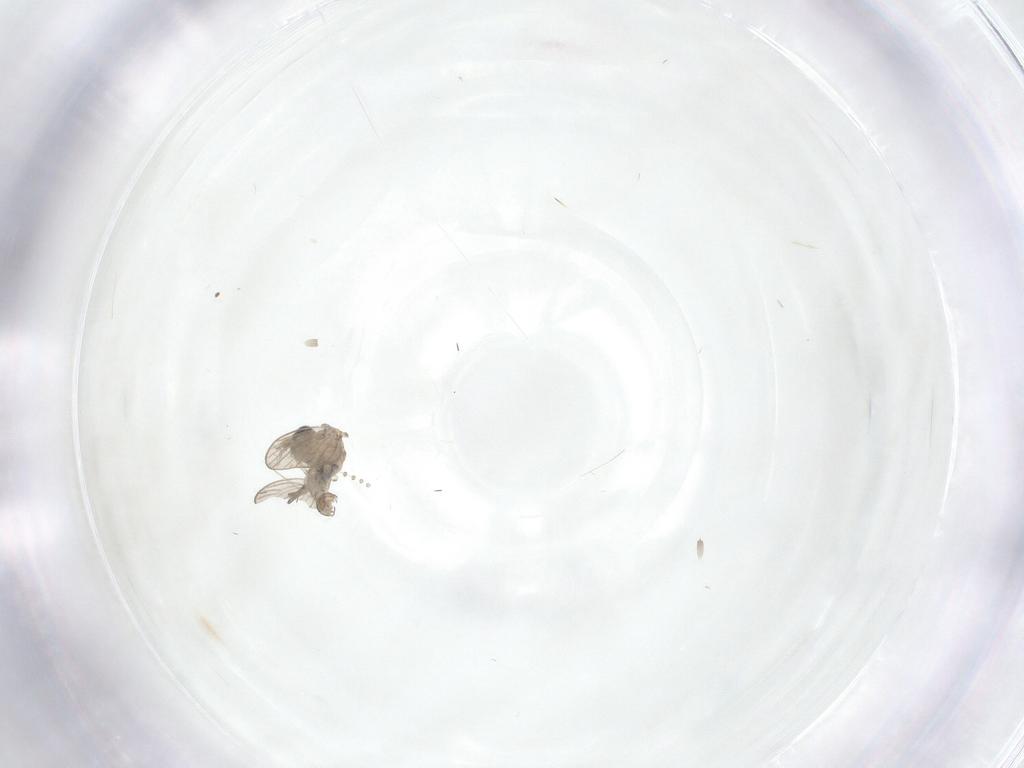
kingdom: Animalia
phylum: Arthropoda
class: Insecta
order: Diptera
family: Psychodidae
